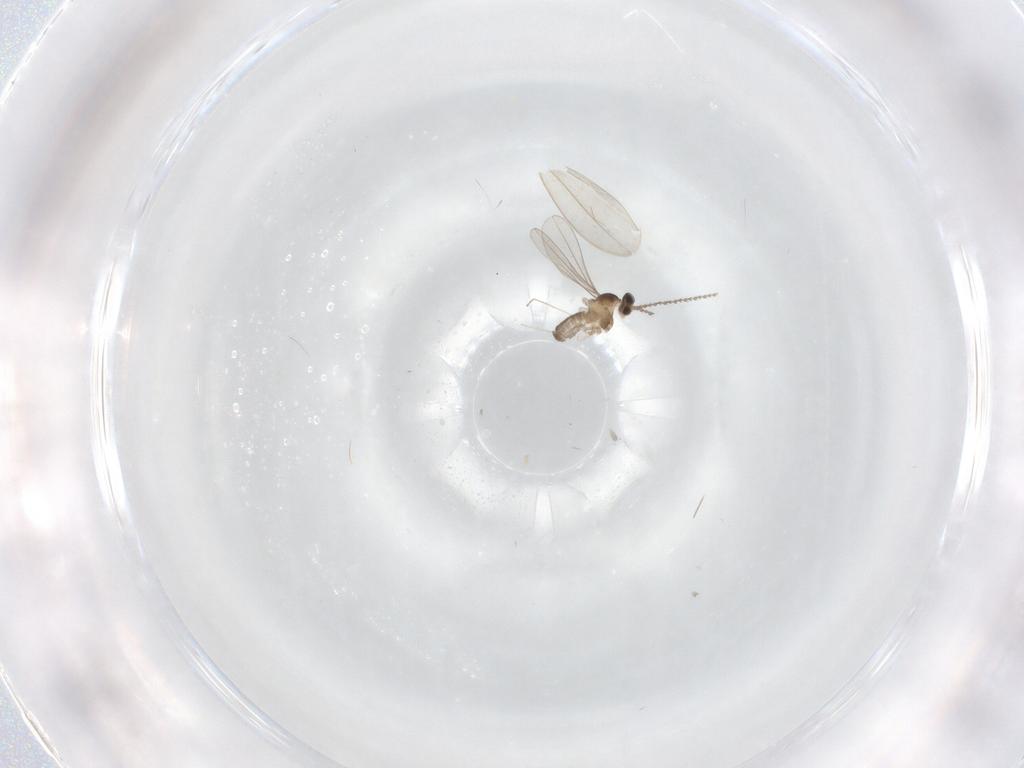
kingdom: Animalia
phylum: Arthropoda
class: Insecta
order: Diptera
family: Cecidomyiidae
